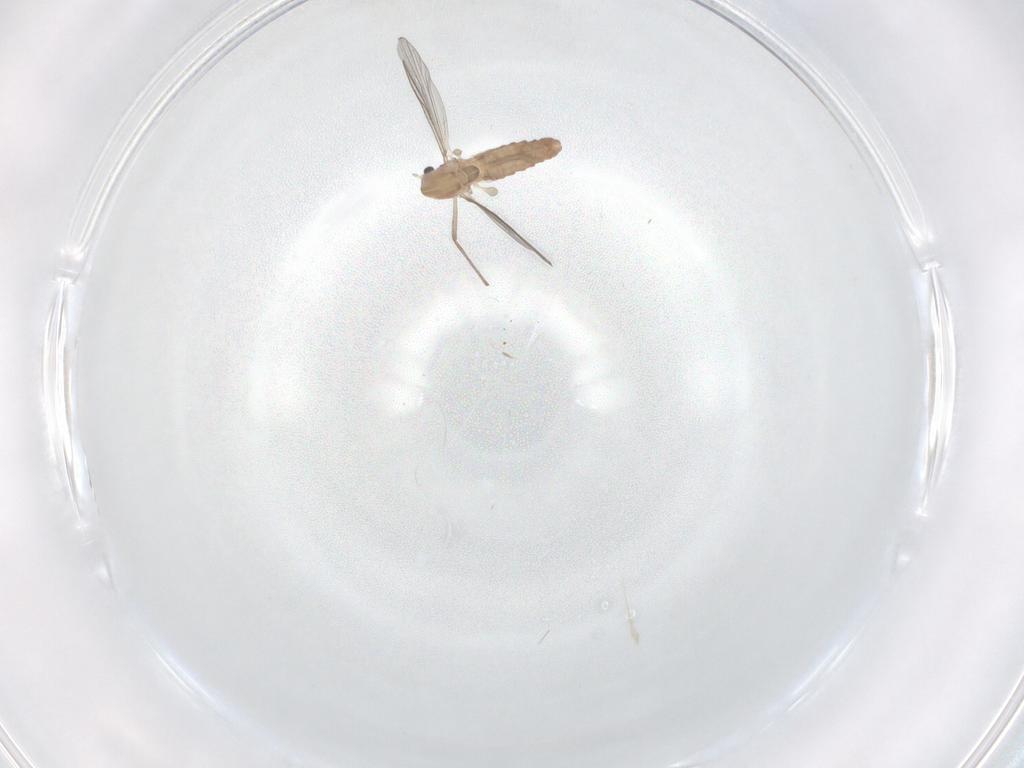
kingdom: Animalia
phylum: Arthropoda
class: Insecta
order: Diptera
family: Chironomidae
